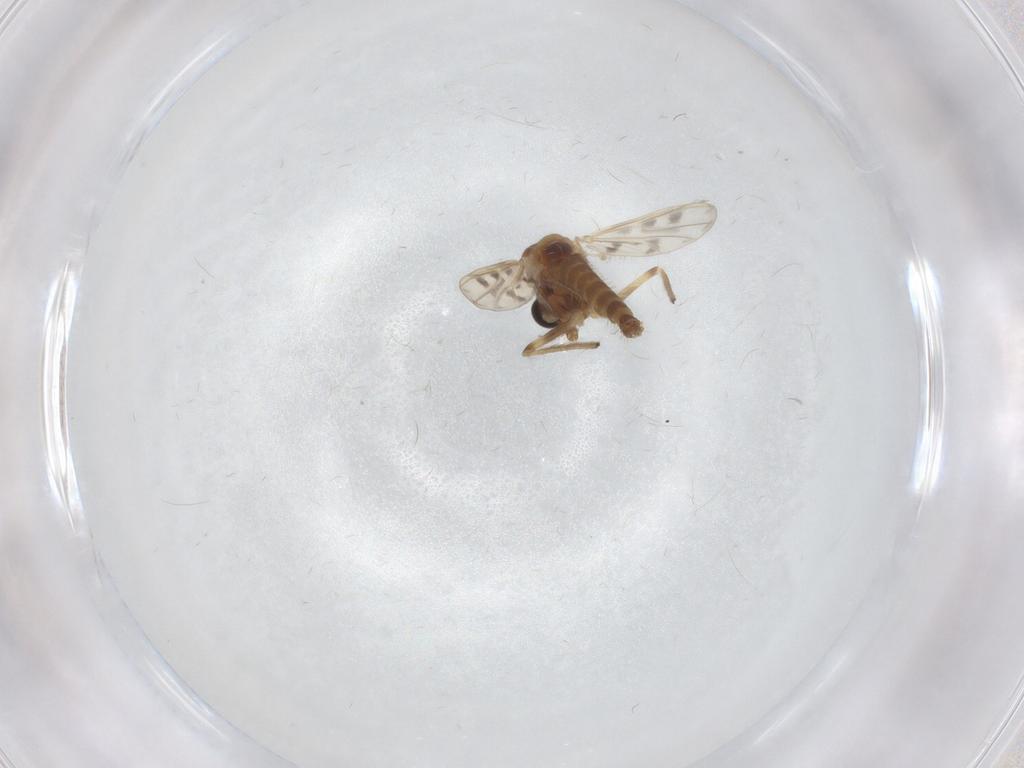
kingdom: Animalia
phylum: Arthropoda
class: Insecta
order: Diptera
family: Chironomidae
